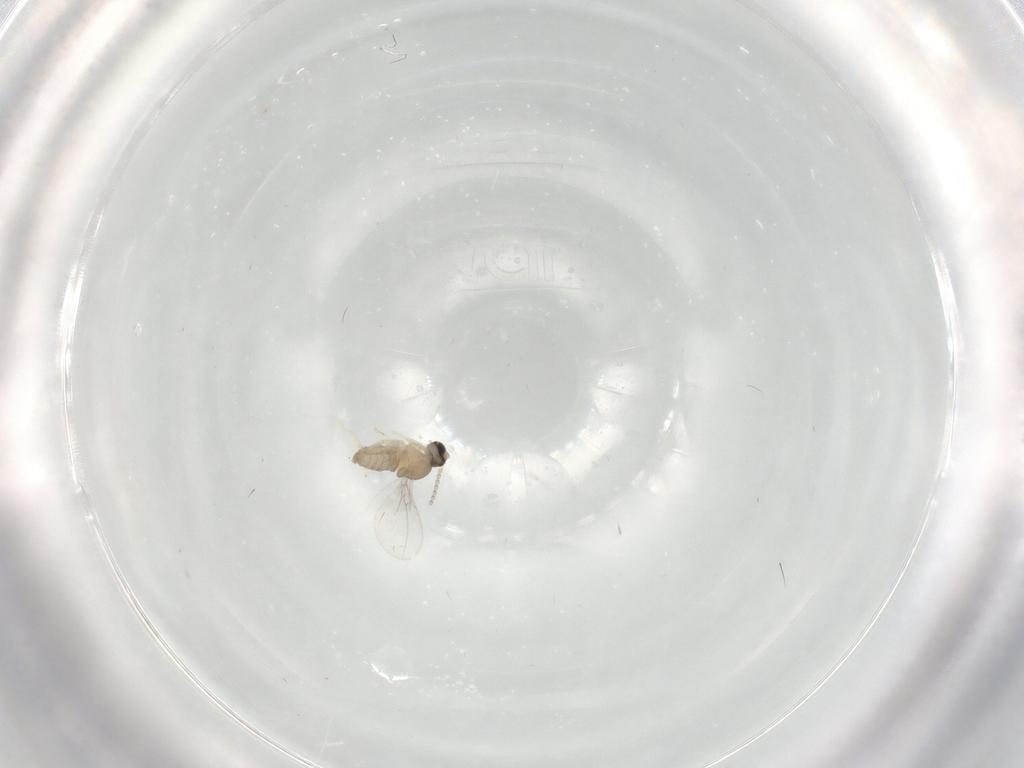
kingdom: Animalia
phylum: Arthropoda
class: Insecta
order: Diptera
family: Cecidomyiidae
